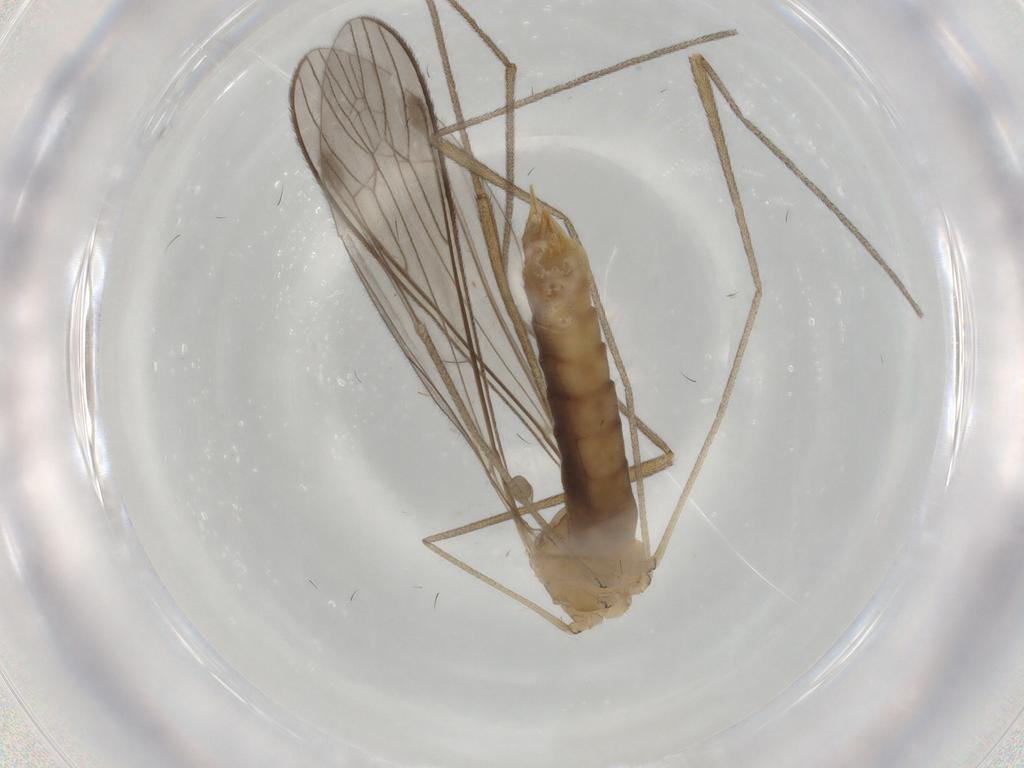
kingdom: Animalia
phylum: Arthropoda
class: Insecta
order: Diptera
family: Limoniidae
